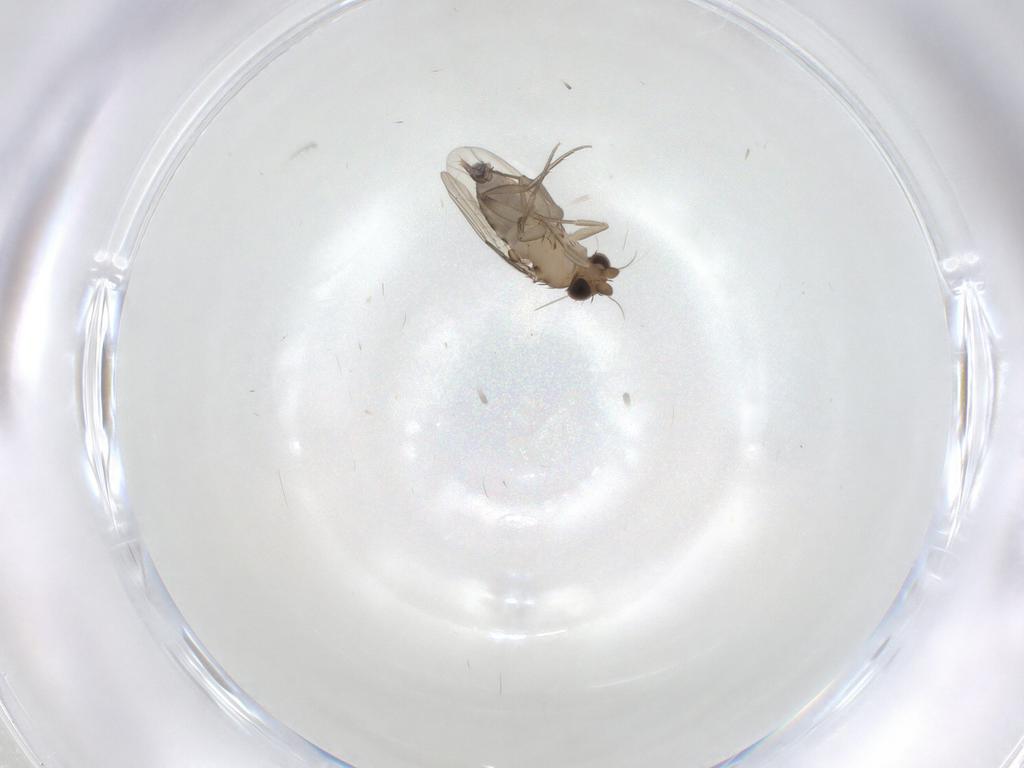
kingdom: Animalia
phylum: Arthropoda
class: Insecta
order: Diptera
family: Phoridae
